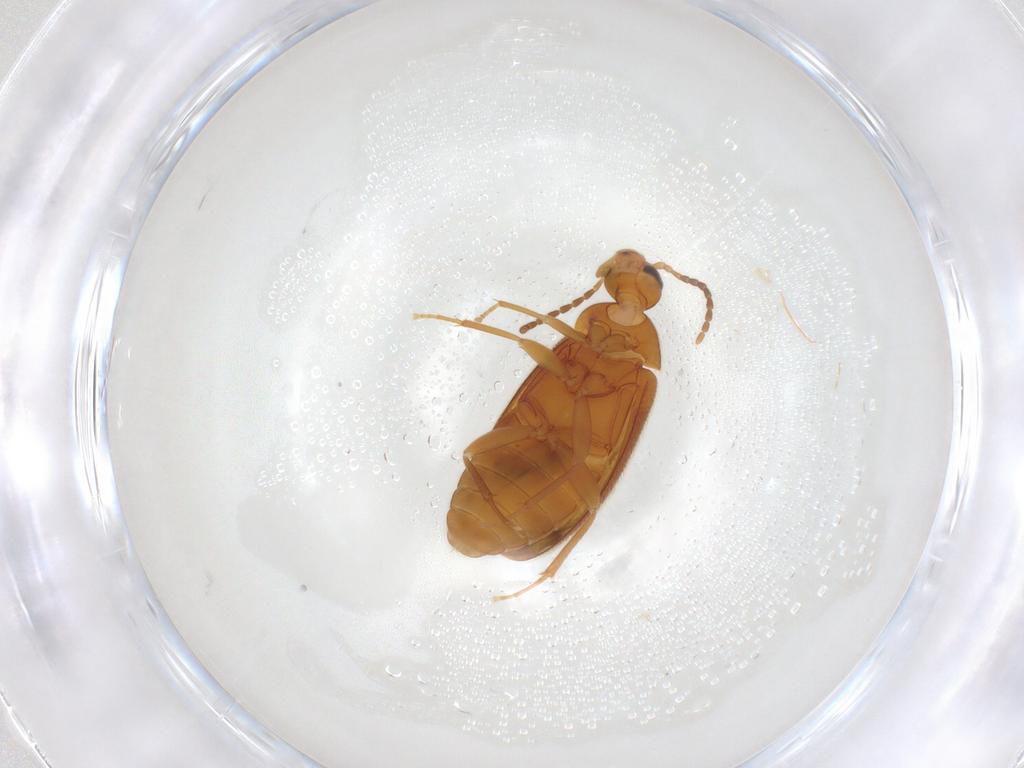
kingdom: Animalia
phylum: Arthropoda
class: Insecta
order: Coleoptera
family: Scraptiidae
